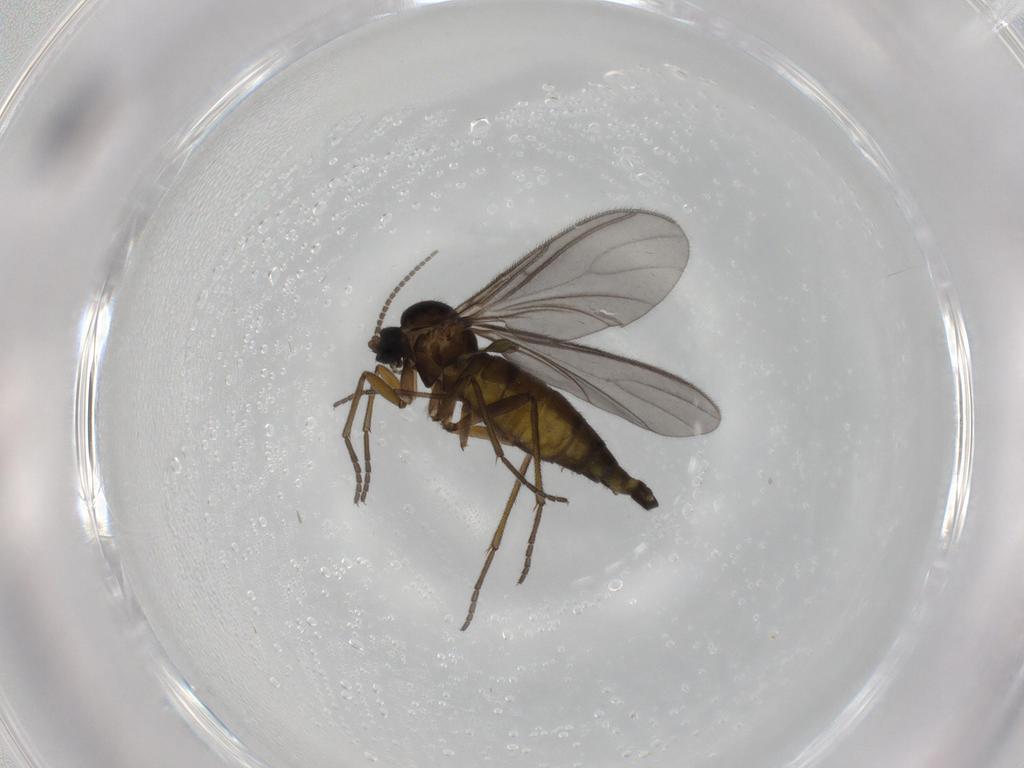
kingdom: Animalia
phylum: Arthropoda
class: Insecta
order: Diptera
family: Sciaridae
